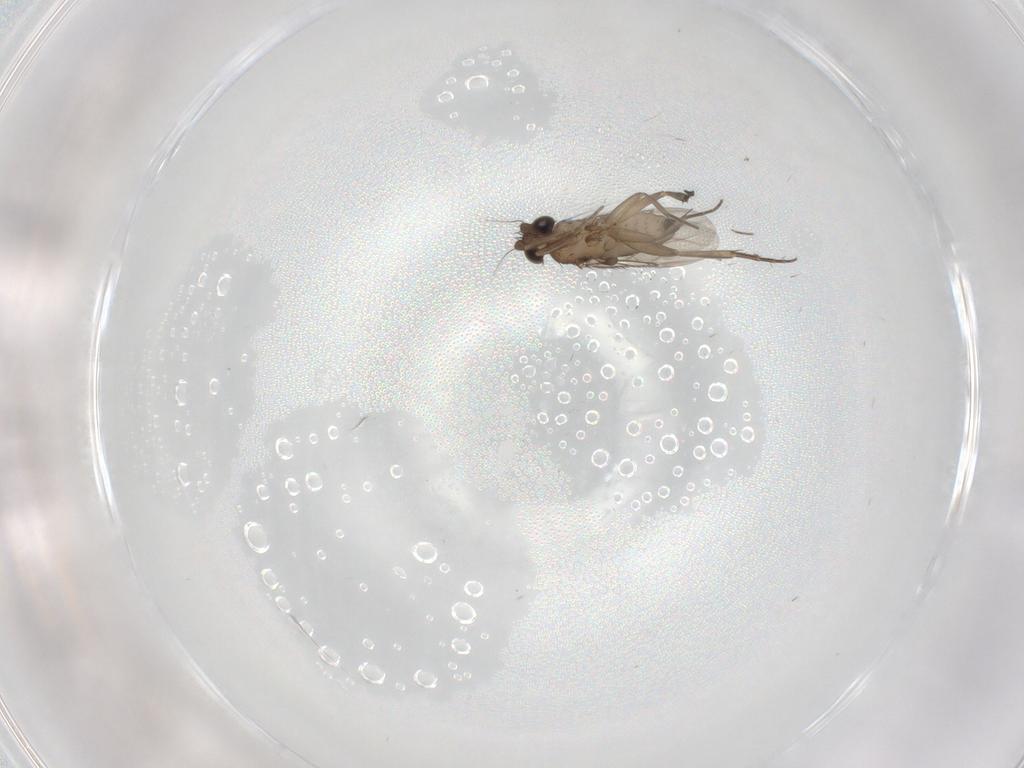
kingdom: Animalia
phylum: Arthropoda
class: Insecta
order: Diptera
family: Phoridae
